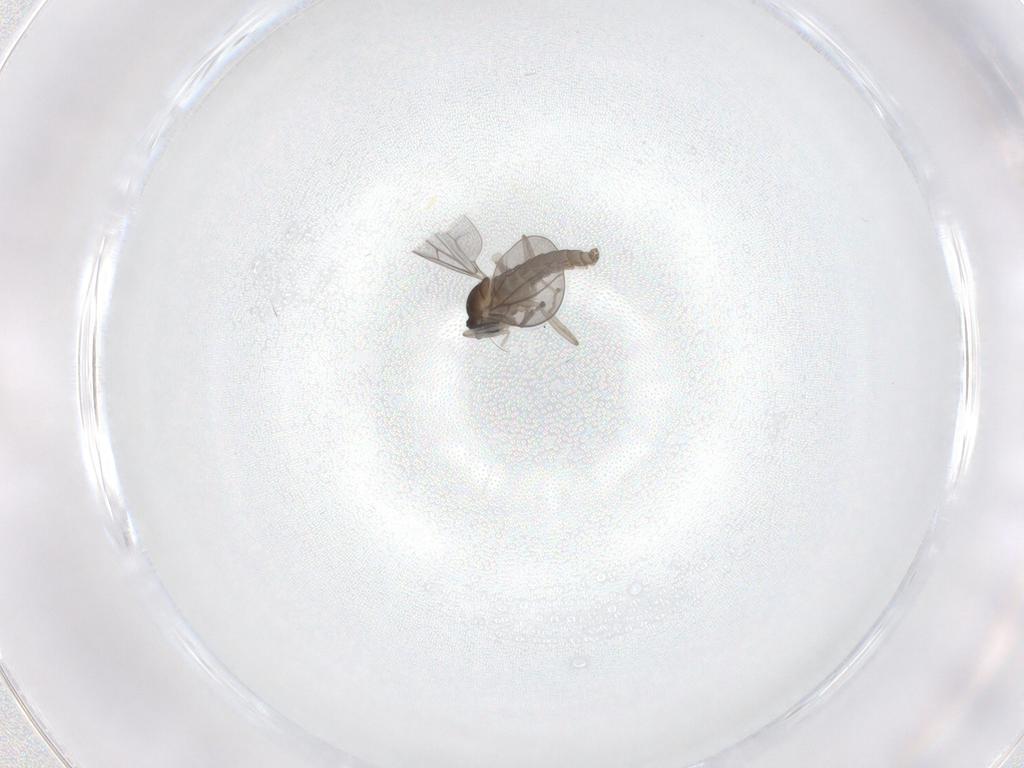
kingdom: Animalia
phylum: Arthropoda
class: Insecta
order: Diptera
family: Cecidomyiidae
